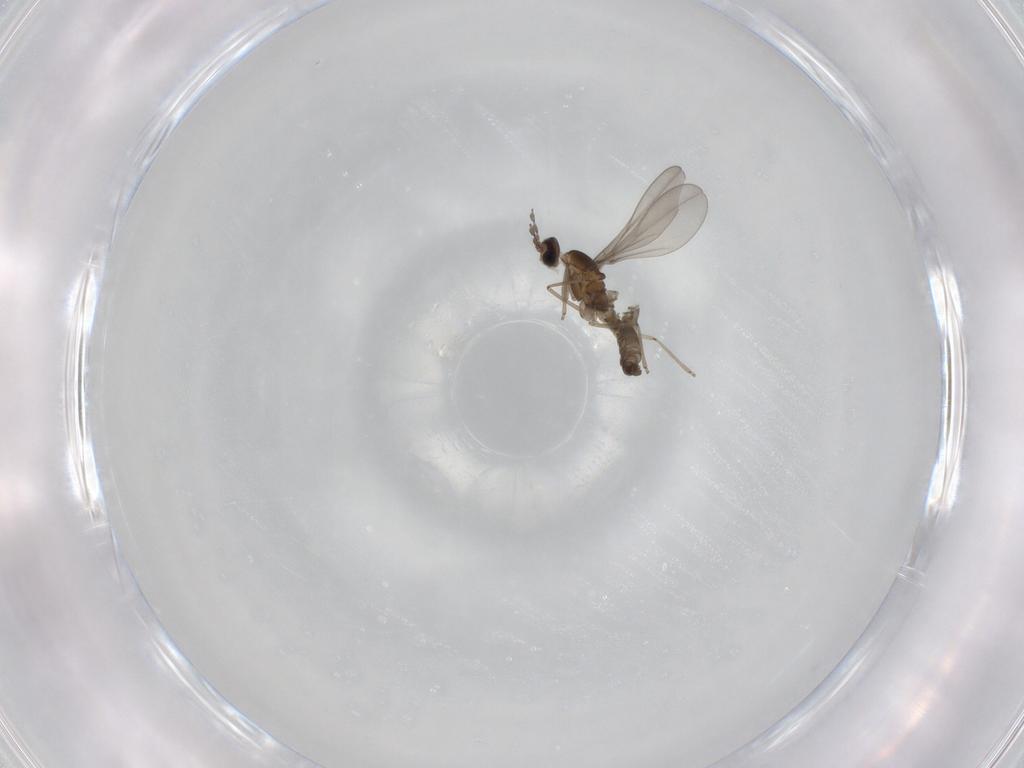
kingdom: Animalia
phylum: Arthropoda
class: Insecta
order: Diptera
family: Cecidomyiidae
